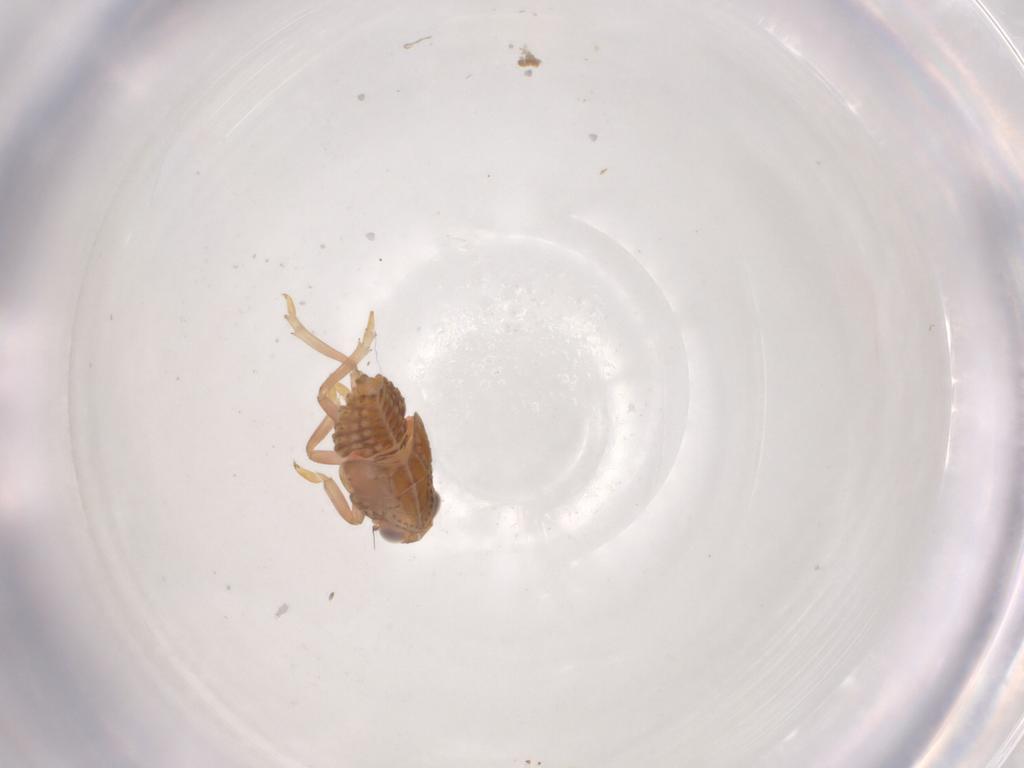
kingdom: Animalia
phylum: Arthropoda
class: Insecta
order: Hemiptera
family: Issidae
